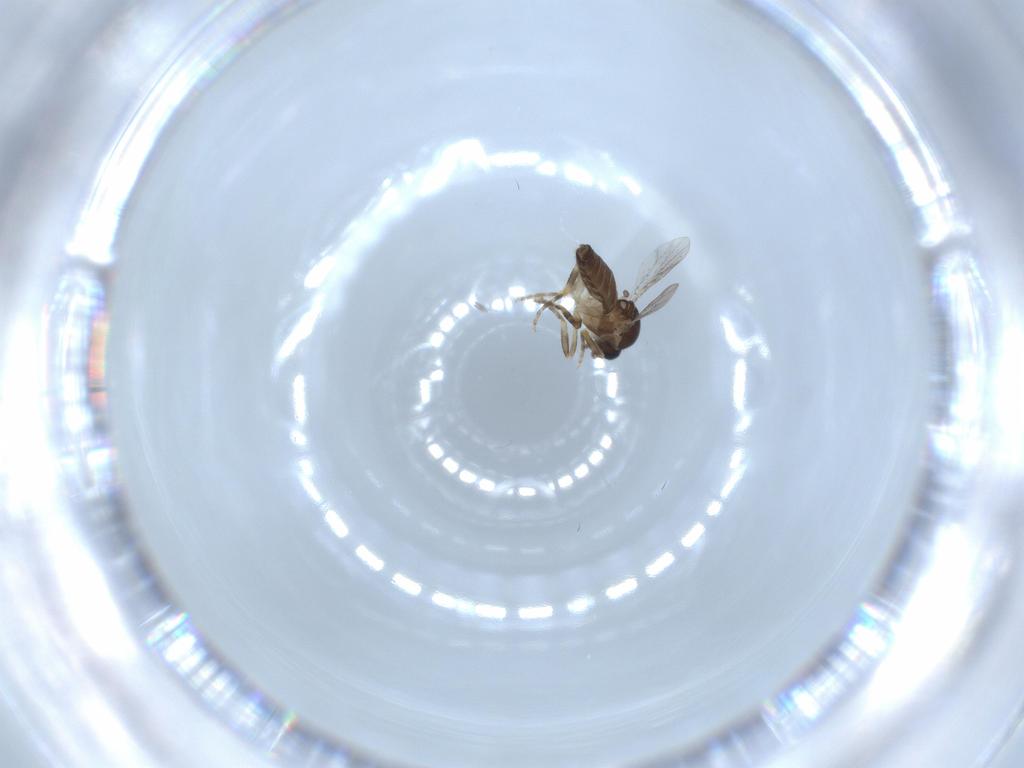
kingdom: Animalia
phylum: Arthropoda
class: Insecta
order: Diptera
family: Ceratopogonidae
